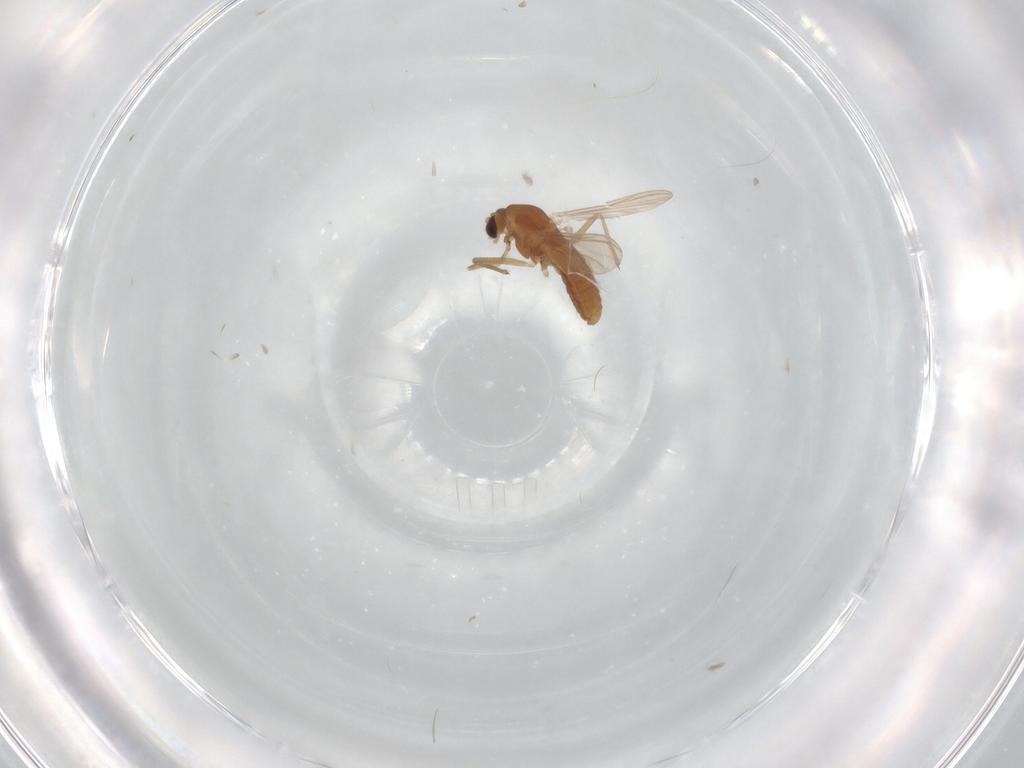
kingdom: Animalia
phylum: Arthropoda
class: Insecta
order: Diptera
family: Chironomidae
